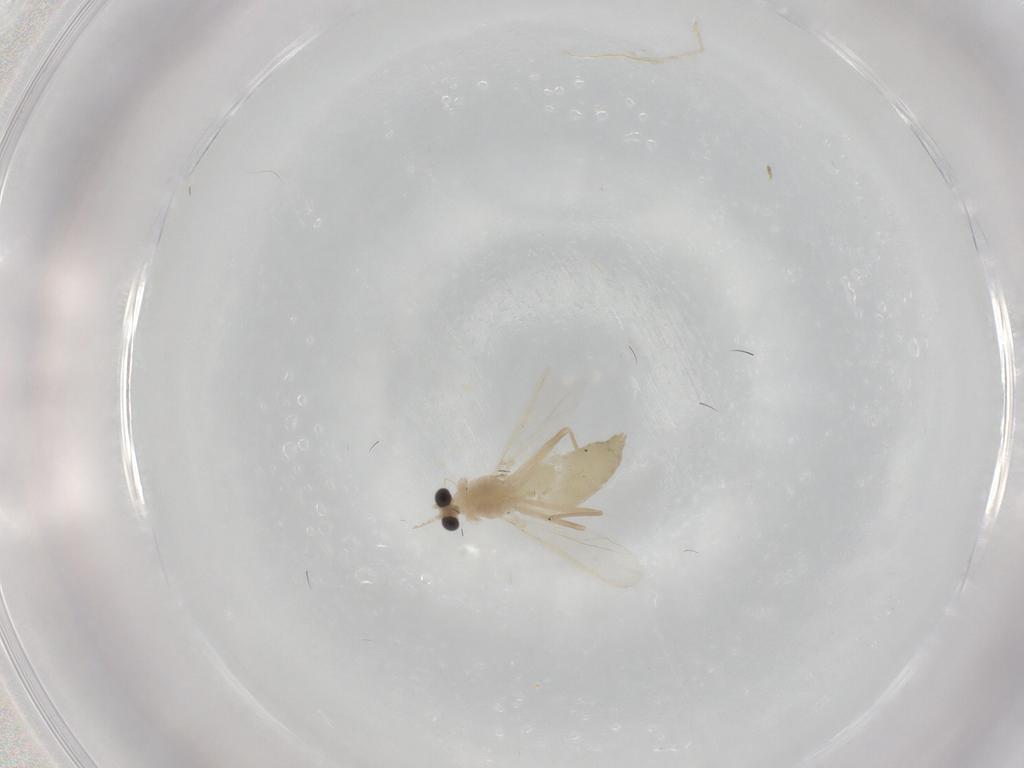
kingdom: Animalia
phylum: Arthropoda
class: Insecta
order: Diptera
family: Chironomidae
